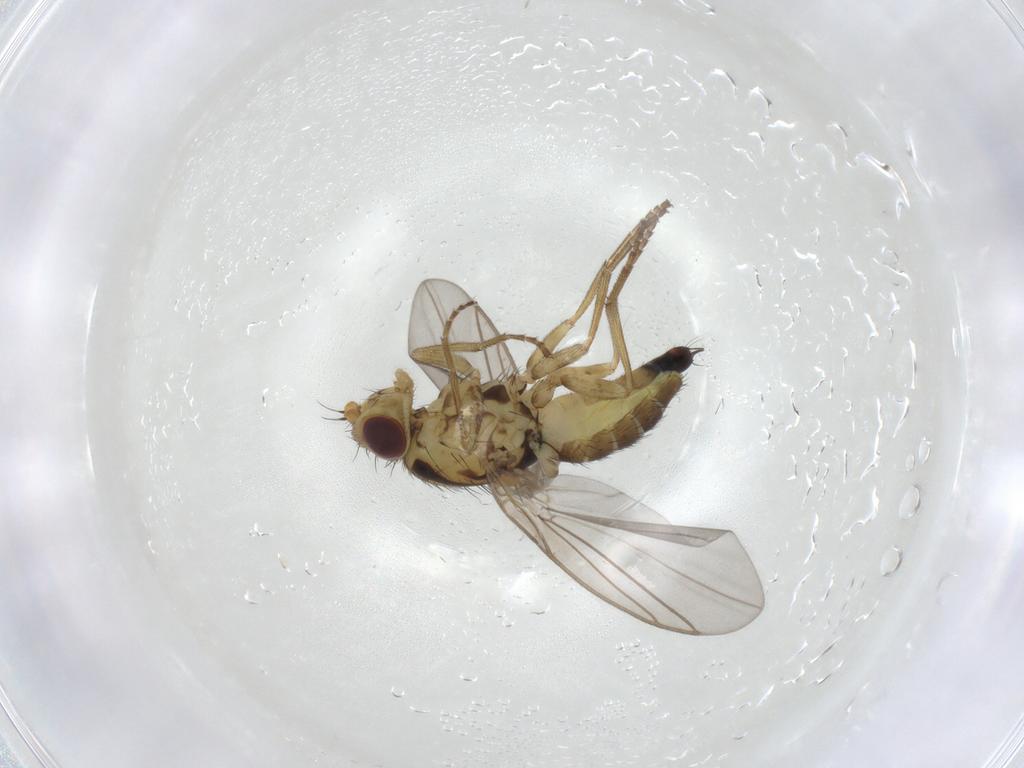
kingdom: Animalia
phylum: Arthropoda
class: Insecta
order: Diptera
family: Agromyzidae
